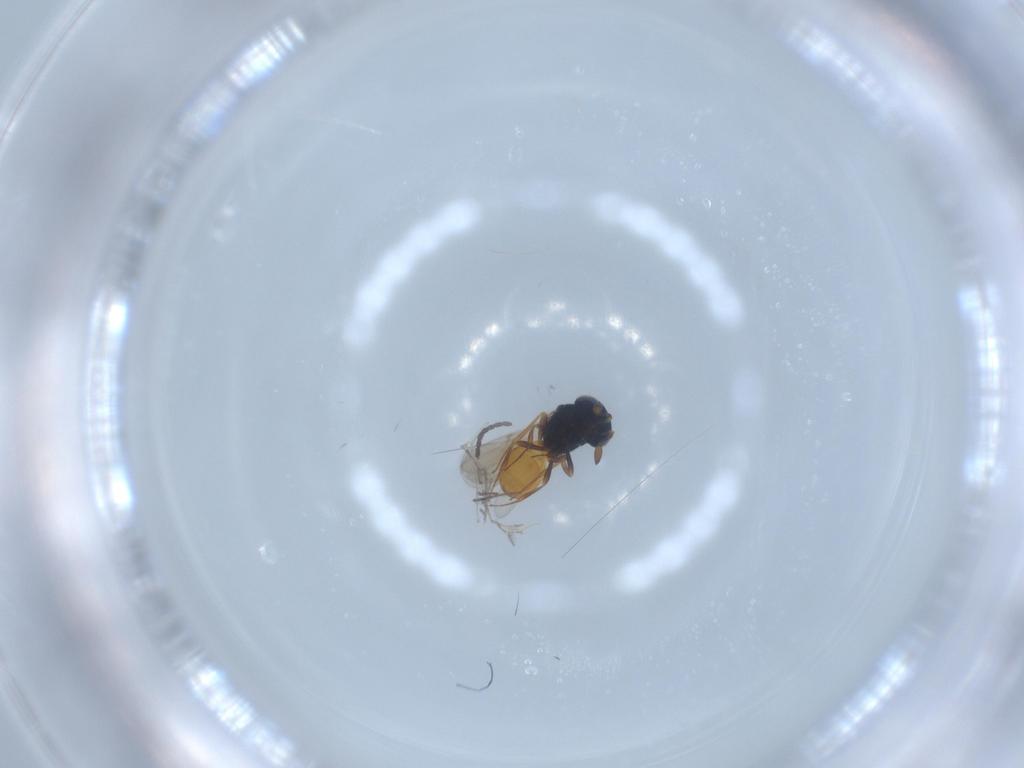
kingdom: Animalia
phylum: Arthropoda
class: Insecta
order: Hymenoptera
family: Scelionidae
